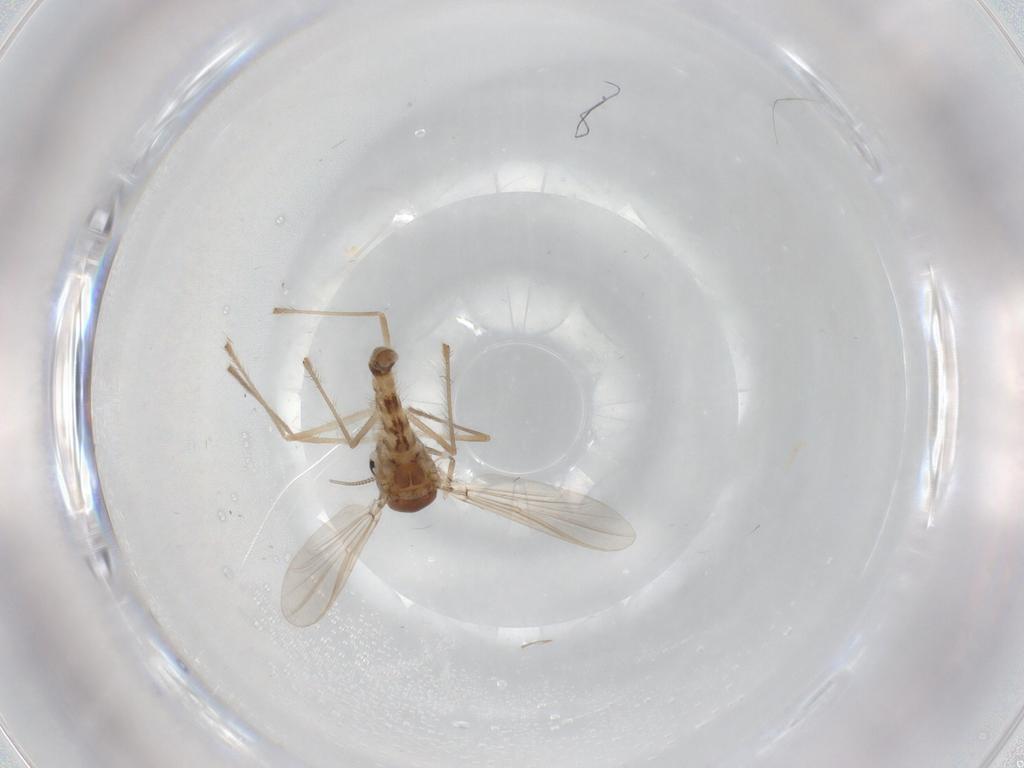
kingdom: Animalia
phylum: Arthropoda
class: Insecta
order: Diptera
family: Chironomidae
